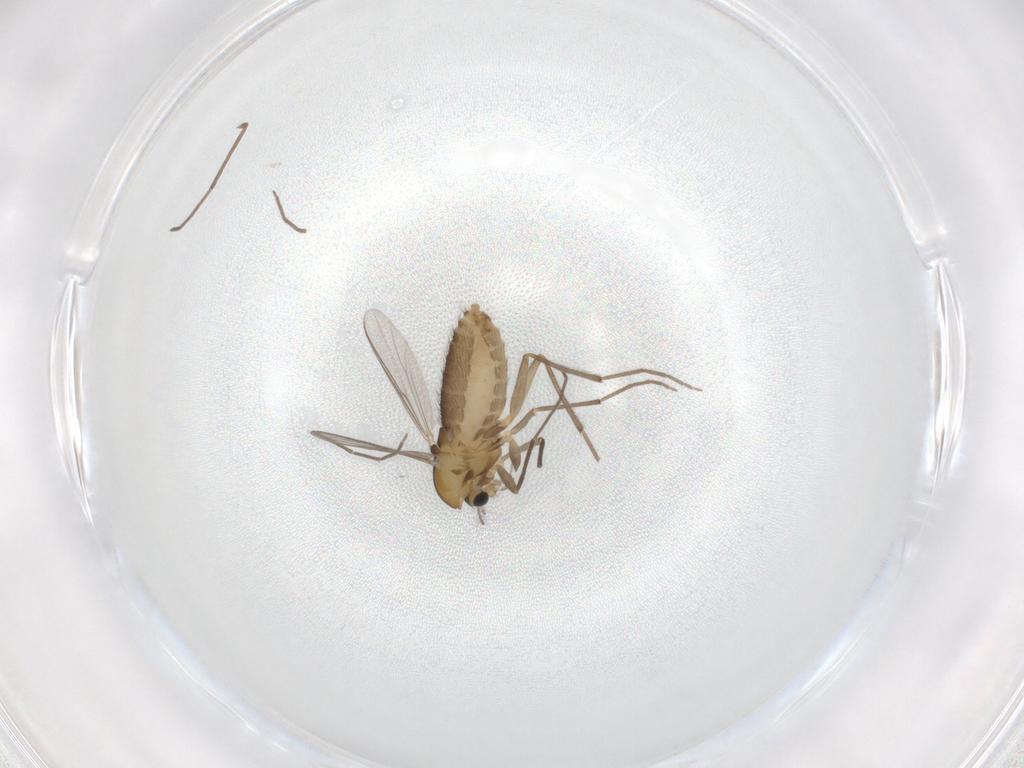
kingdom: Animalia
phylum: Arthropoda
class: Insecta
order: Diptera
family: Chironomidae
